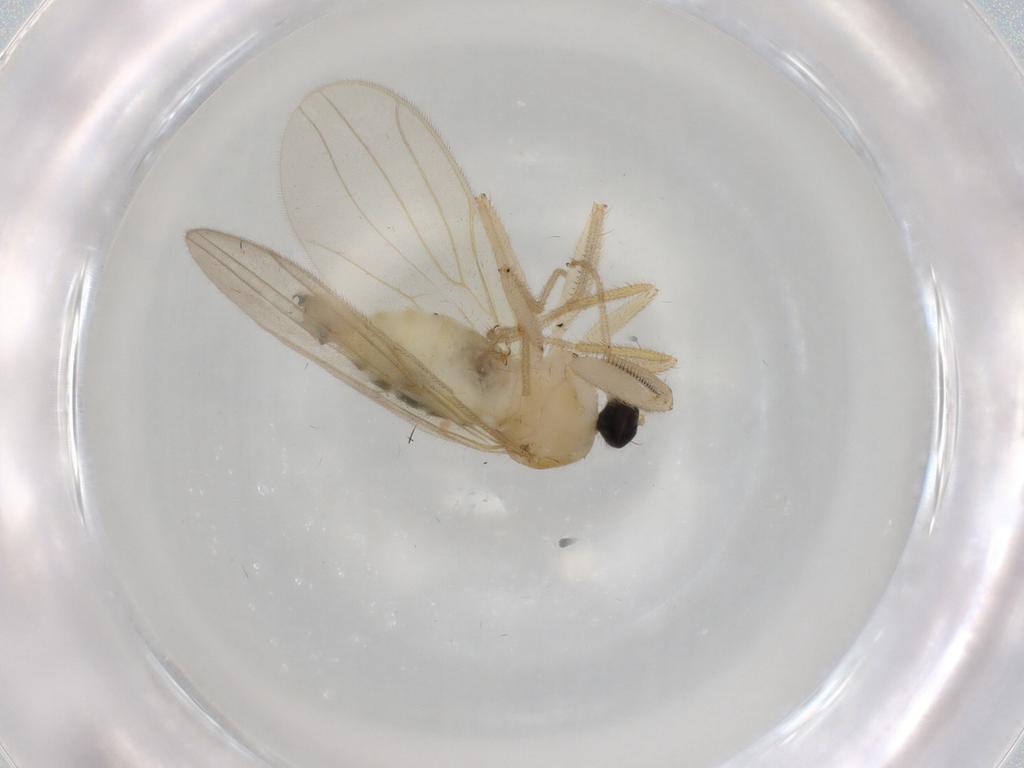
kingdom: Animalia
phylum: Arthropoda
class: Insecta
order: Diptera
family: Hybotidae
